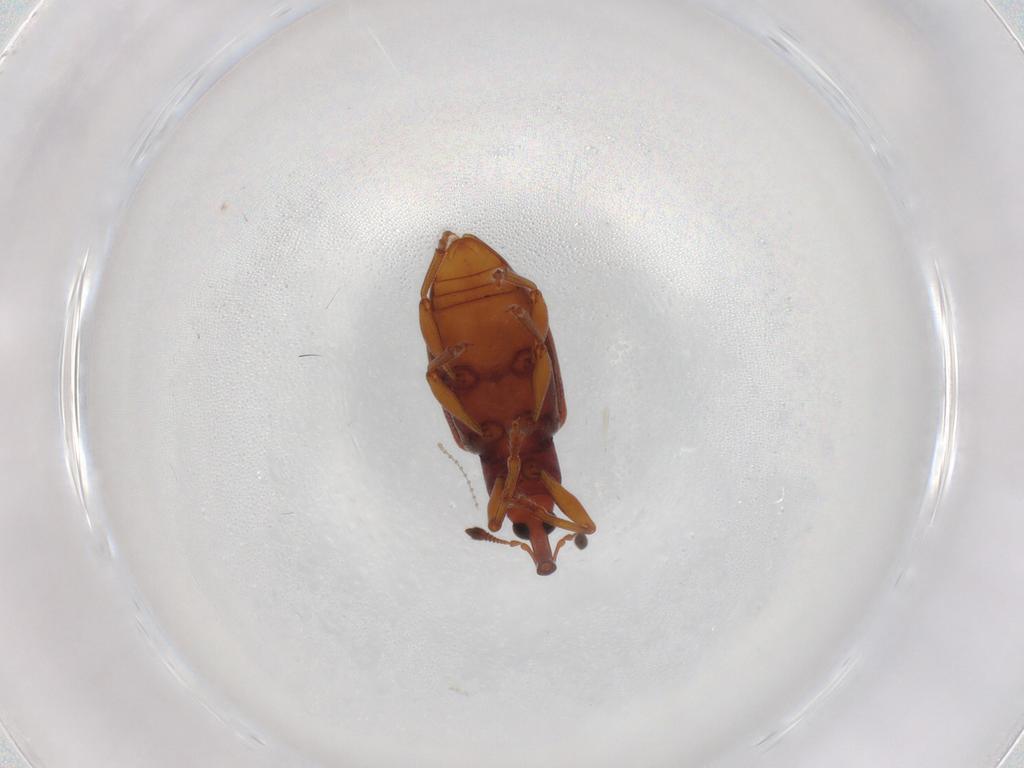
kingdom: Animalia
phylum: Arthropoda
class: Insecta
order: Coleoptera
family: Curculionidae
